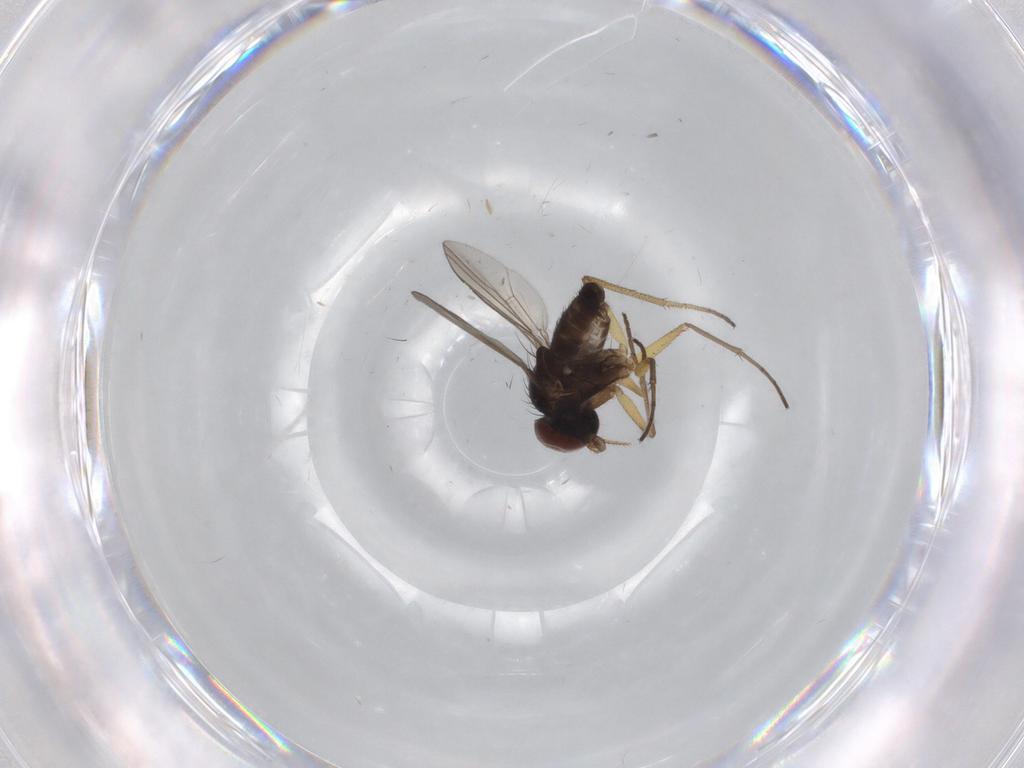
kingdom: Animalia
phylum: Arthropoda
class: Insecta
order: Diptera
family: Dolichopodidae
